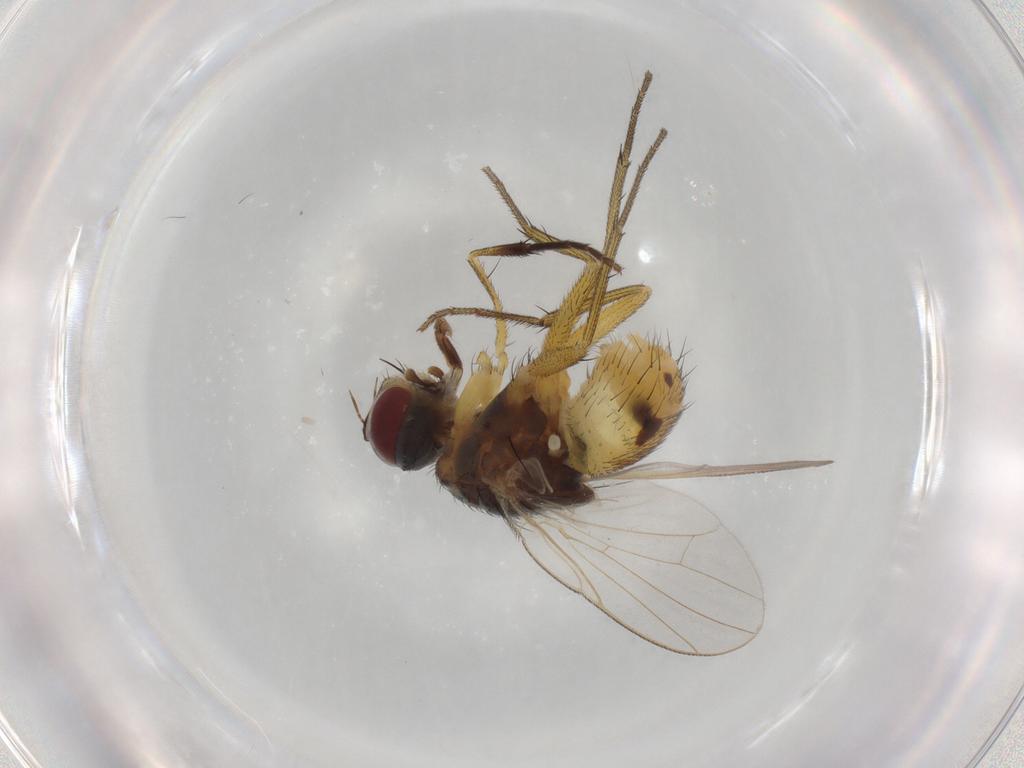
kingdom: Animalia
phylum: Arthropoda
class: Insecta
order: Diptera
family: Muscidae
